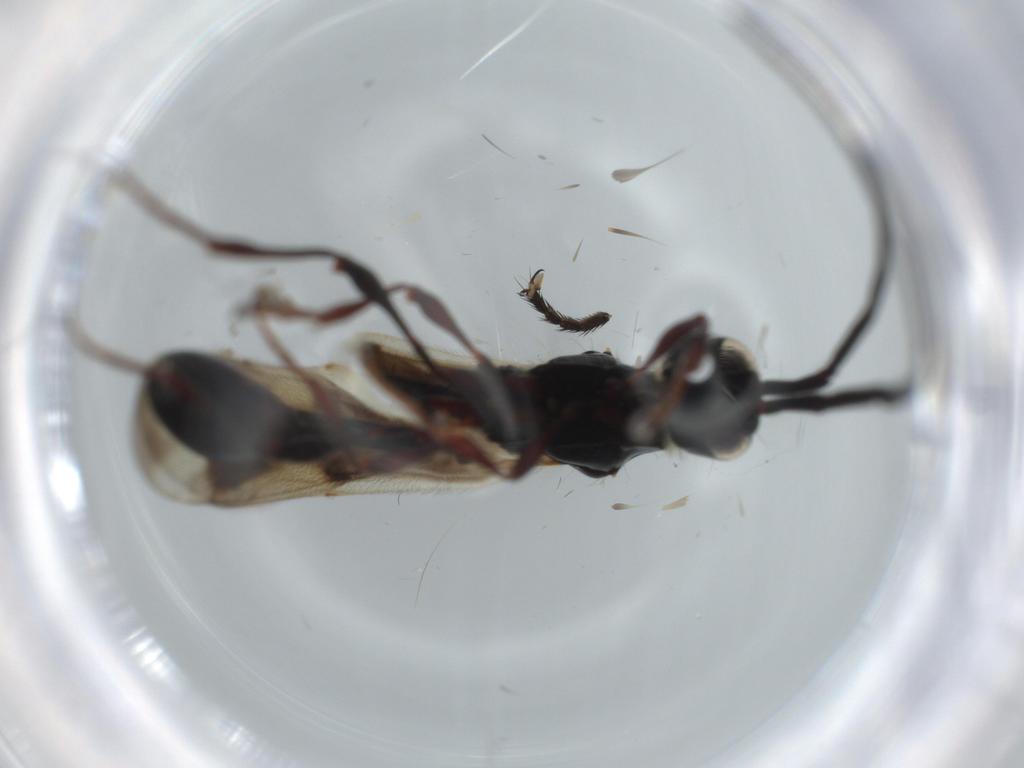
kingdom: Animalia
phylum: Arthropoda
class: Insecta
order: Hymenoptera
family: Diapriidae
